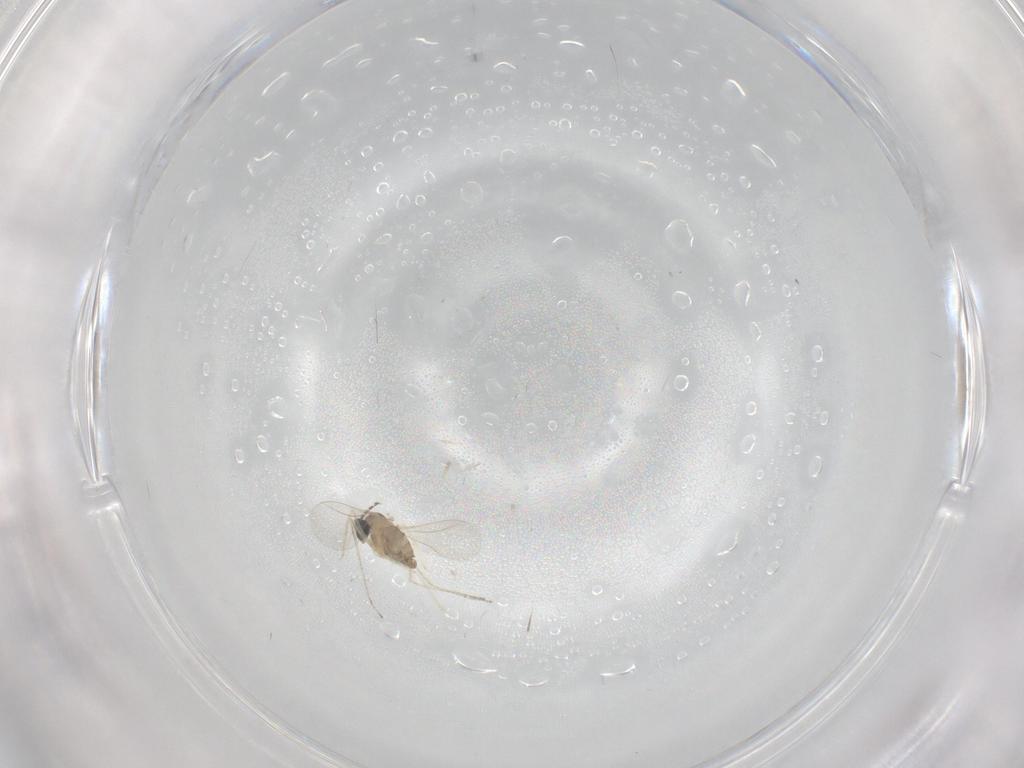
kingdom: Animalia
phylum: Arthropoda
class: Insecta
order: Diptera
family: Cecidomyiidae
